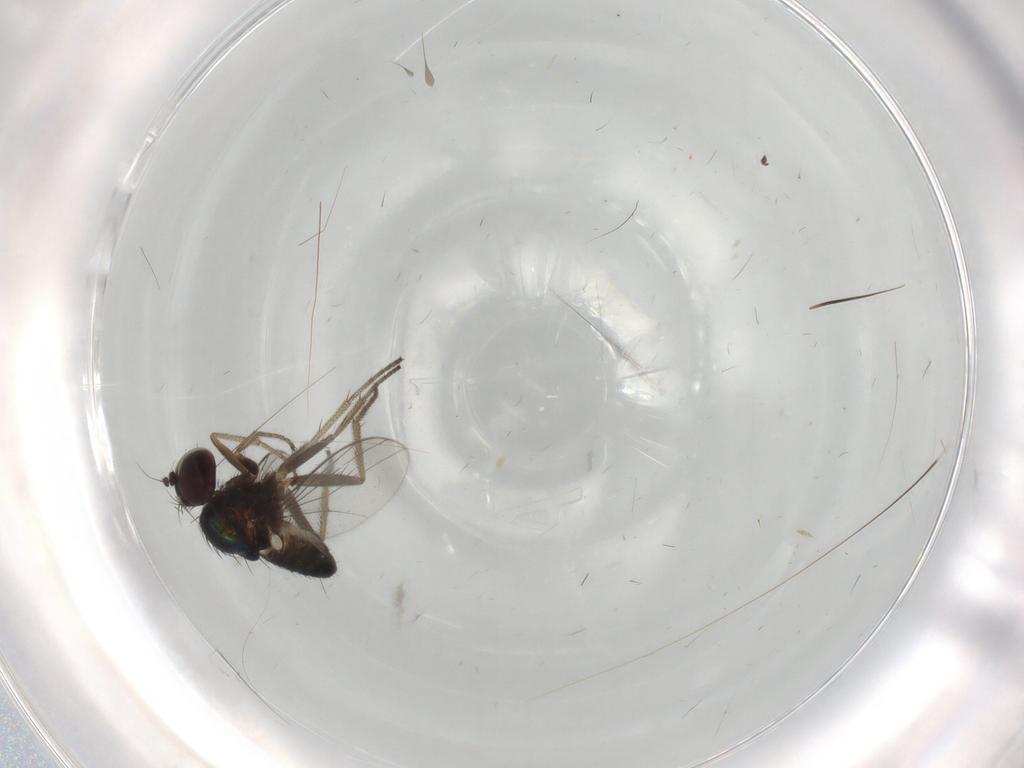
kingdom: Animalia
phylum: Arthropoda
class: Insecta
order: Diptera
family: Dolichopodidae
